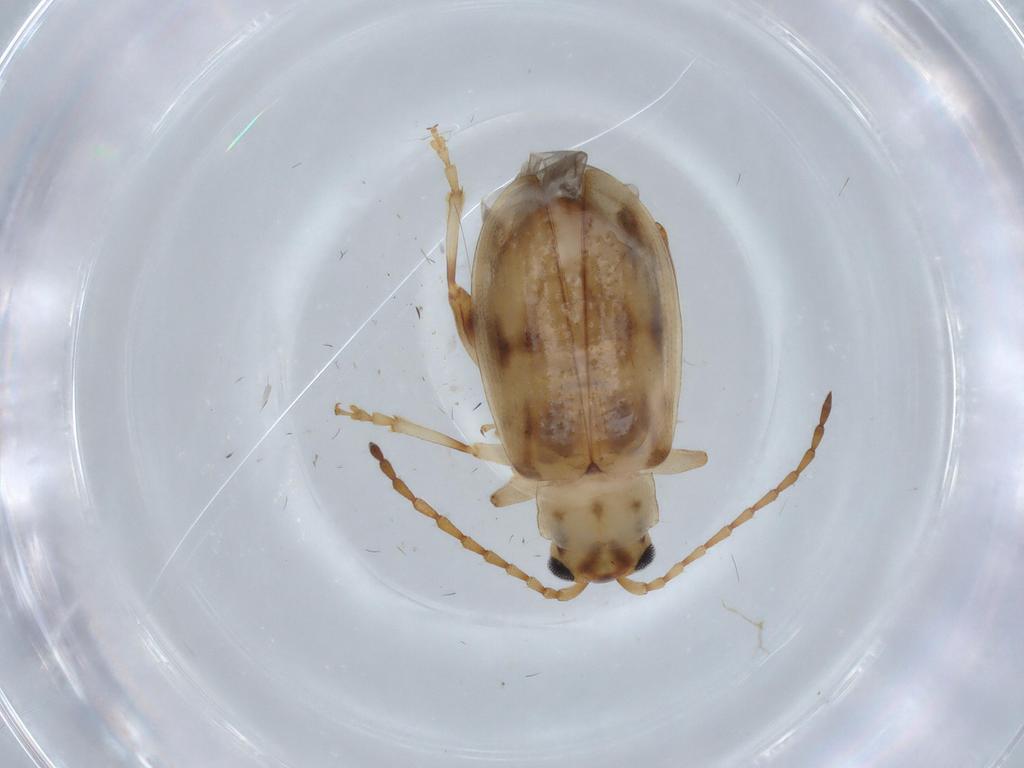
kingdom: Animalia
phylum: Arthropoda
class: Insecta
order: Coleoptera
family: Chrysomelidae
